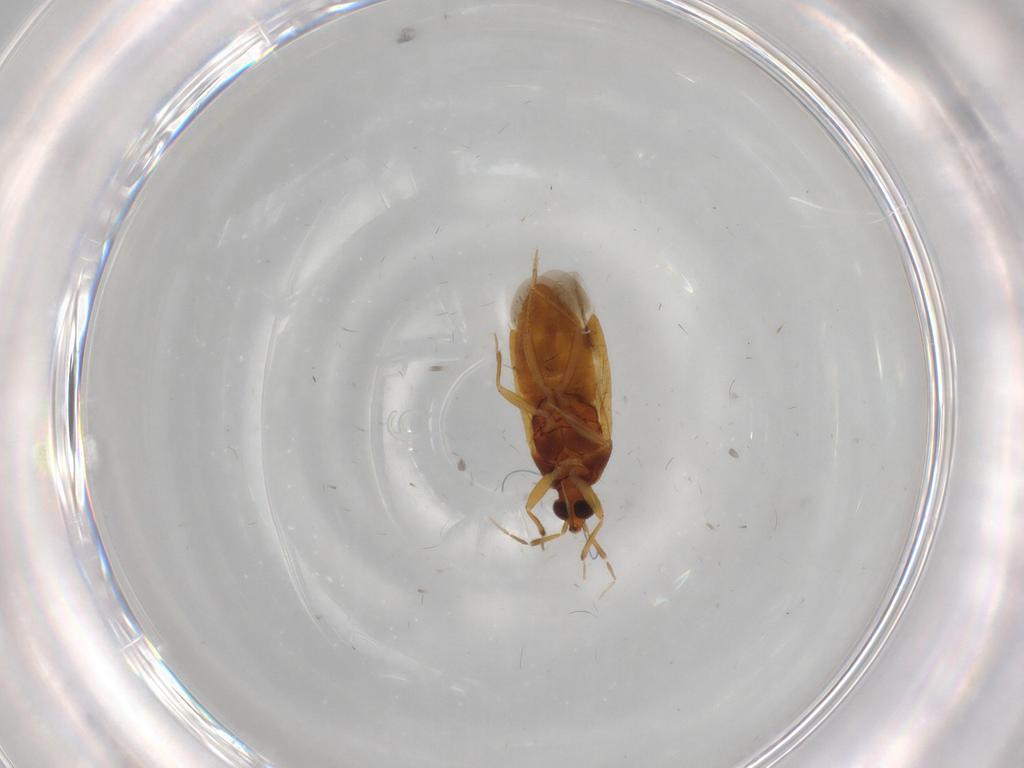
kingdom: Animalia
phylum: Arthropoda
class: Insecta
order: Hemiptera
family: Anthocoridae
